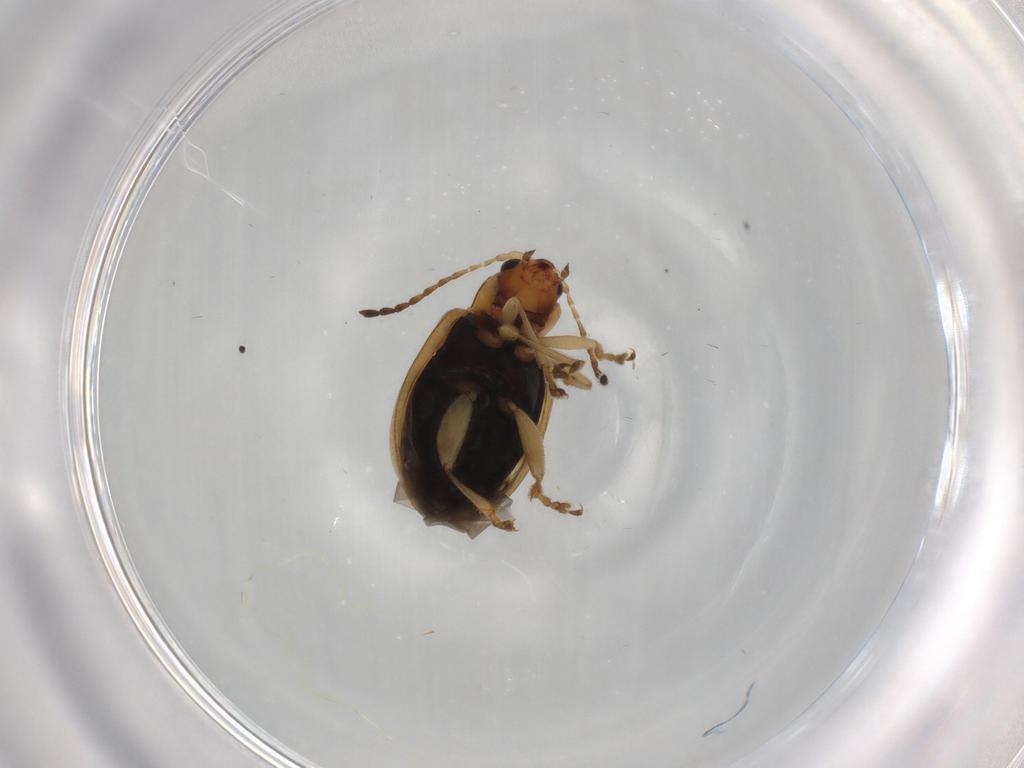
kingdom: Animalia
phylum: Arthropoda
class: Insecta
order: Coleoptera
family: Chrysomelidae
